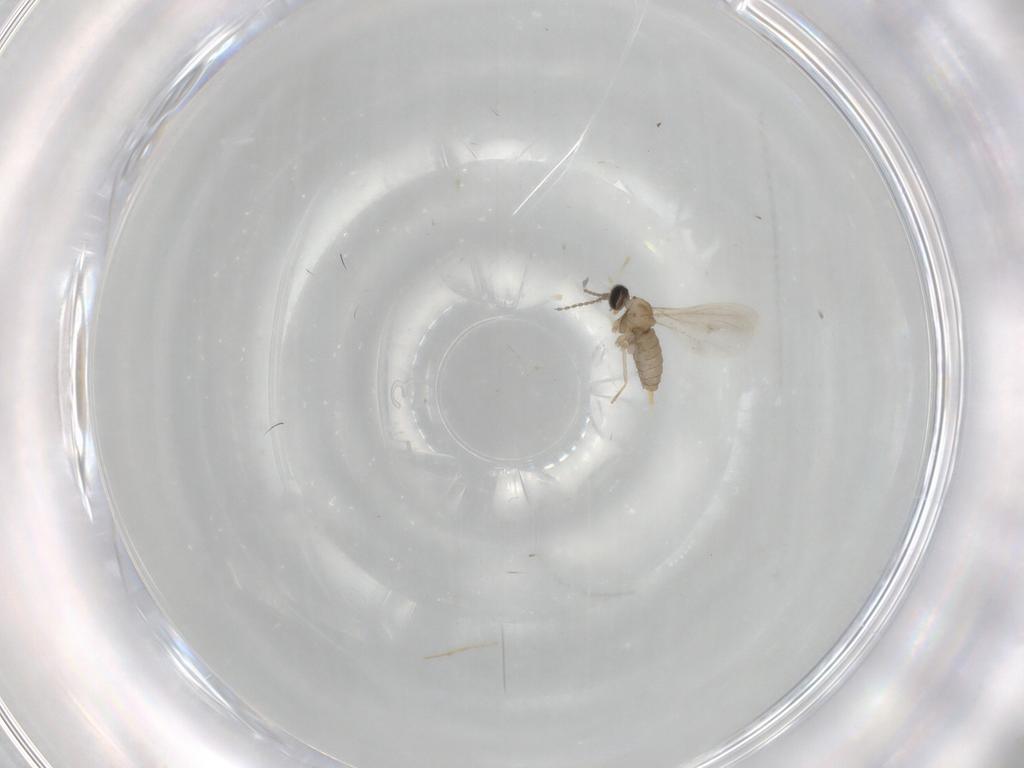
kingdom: Animalia
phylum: Arthropoda
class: Insecta
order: Diptera
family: Cecidomyiidae
